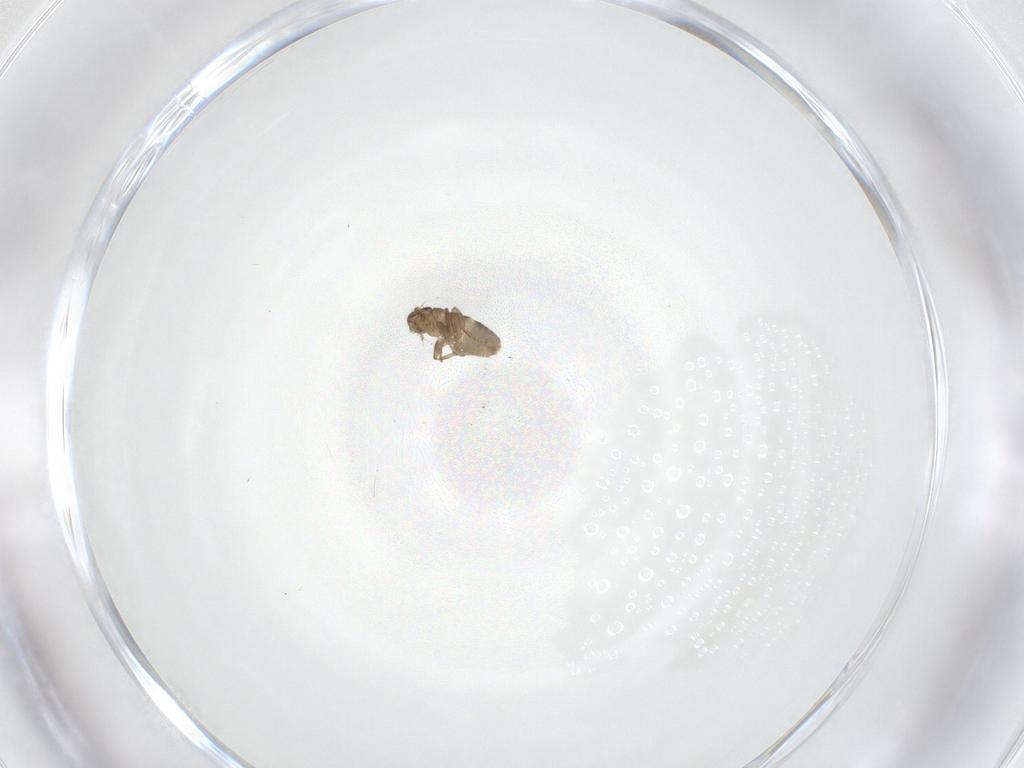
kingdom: Animalia
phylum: Arthropoda
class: Insecta
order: Diptera
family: Phoridae
